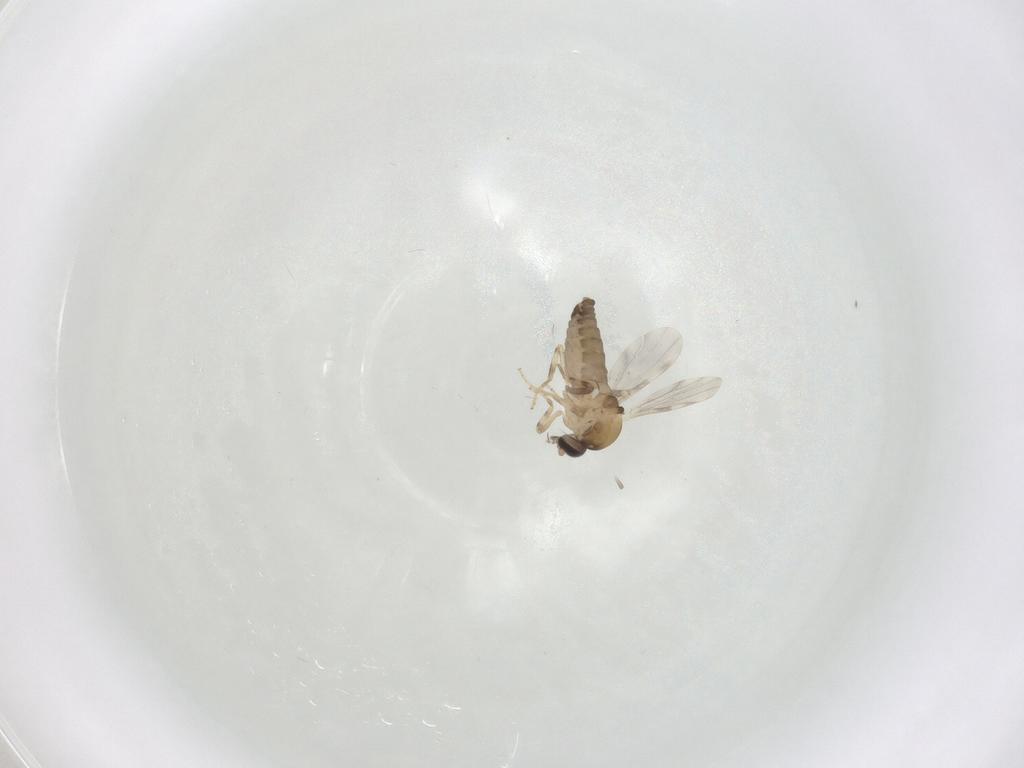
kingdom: Animalia
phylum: Arthropoda
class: Insecta
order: Diptera
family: Ceratopogonidae
